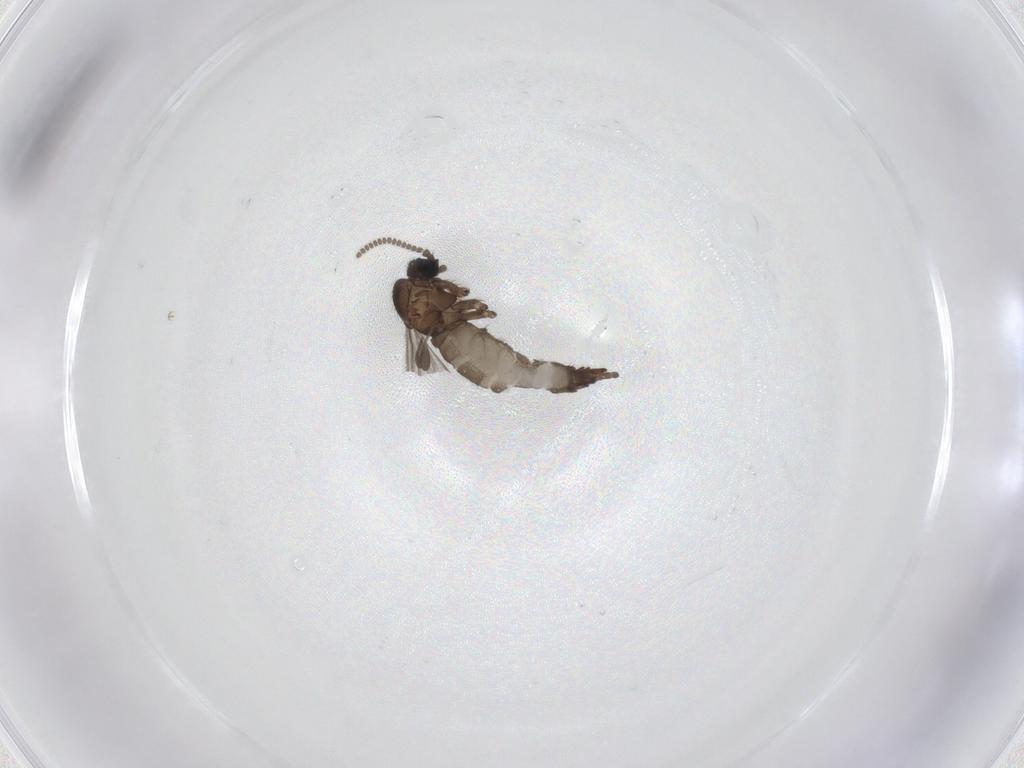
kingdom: Animalia
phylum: Arthropoda
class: Insecta
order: Diptera
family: Sciaridae
